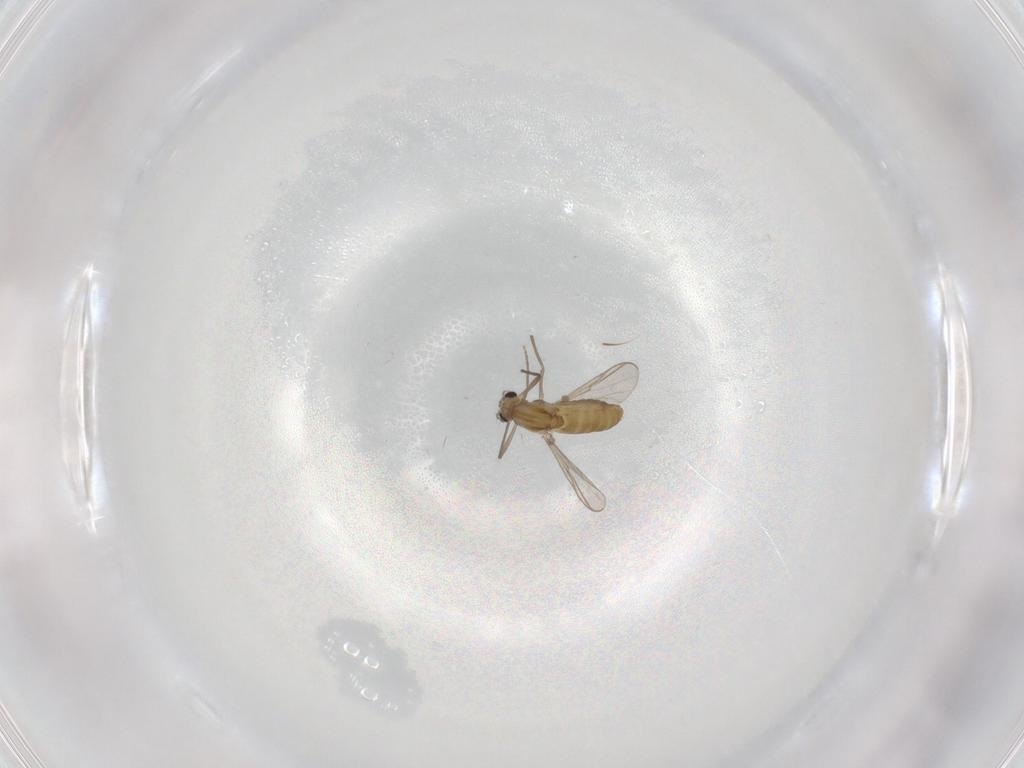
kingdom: Animalia
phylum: Arthropoda
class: Insecta
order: Diptera
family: Chironomidae
